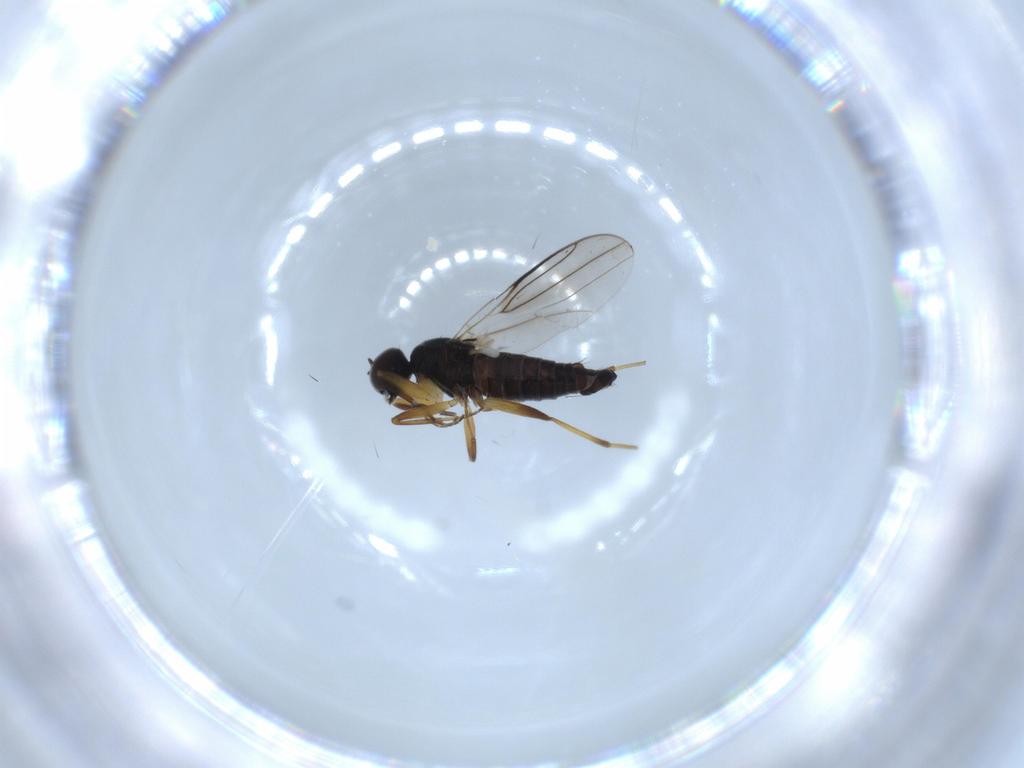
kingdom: Animalia
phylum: Arthropoda
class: Insecta
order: Diptera
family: Hybotidae
